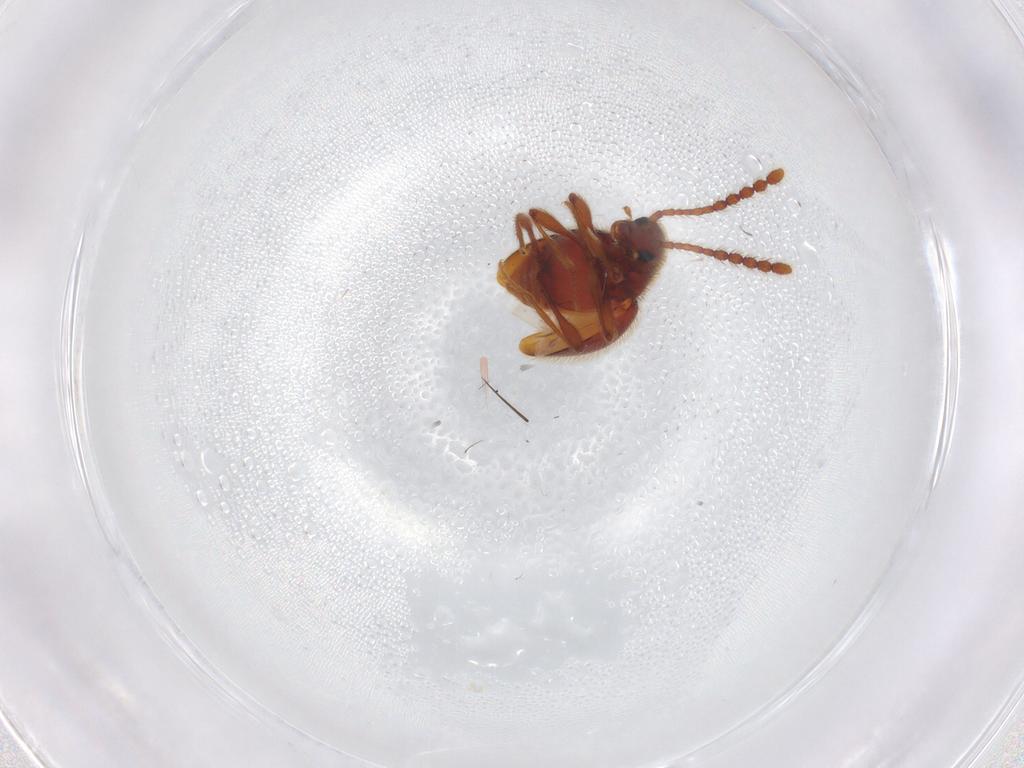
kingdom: Animalia
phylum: Arthropoda
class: Insecta
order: Coleoptera
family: Staphylinidae
